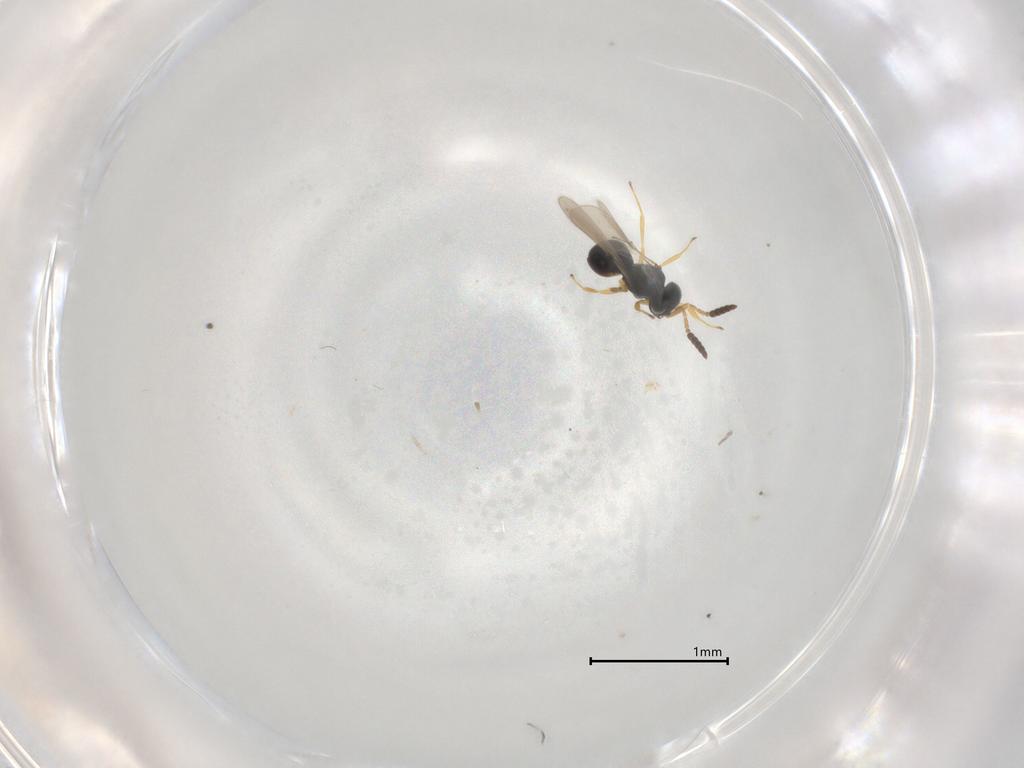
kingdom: Animalia
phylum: Arthropoda
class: Insecta
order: Hymenoptera
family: Scelionidae
